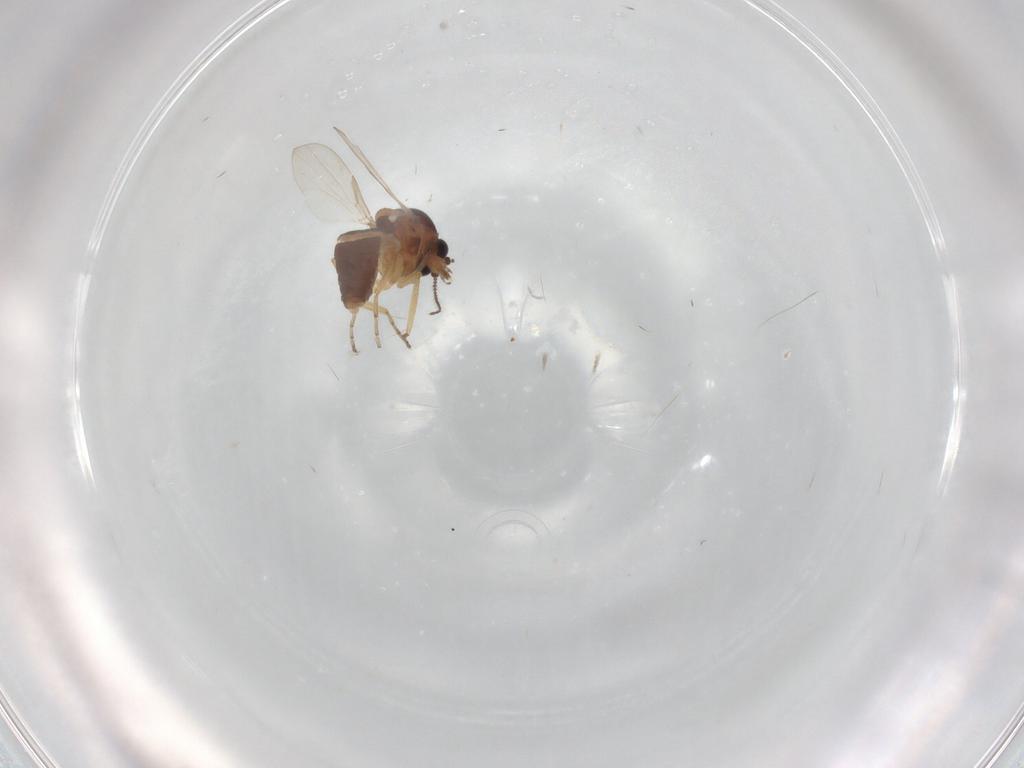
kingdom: Animalia
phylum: Arthropoda
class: Insecta
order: Diptera
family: Ceratopogonidae
